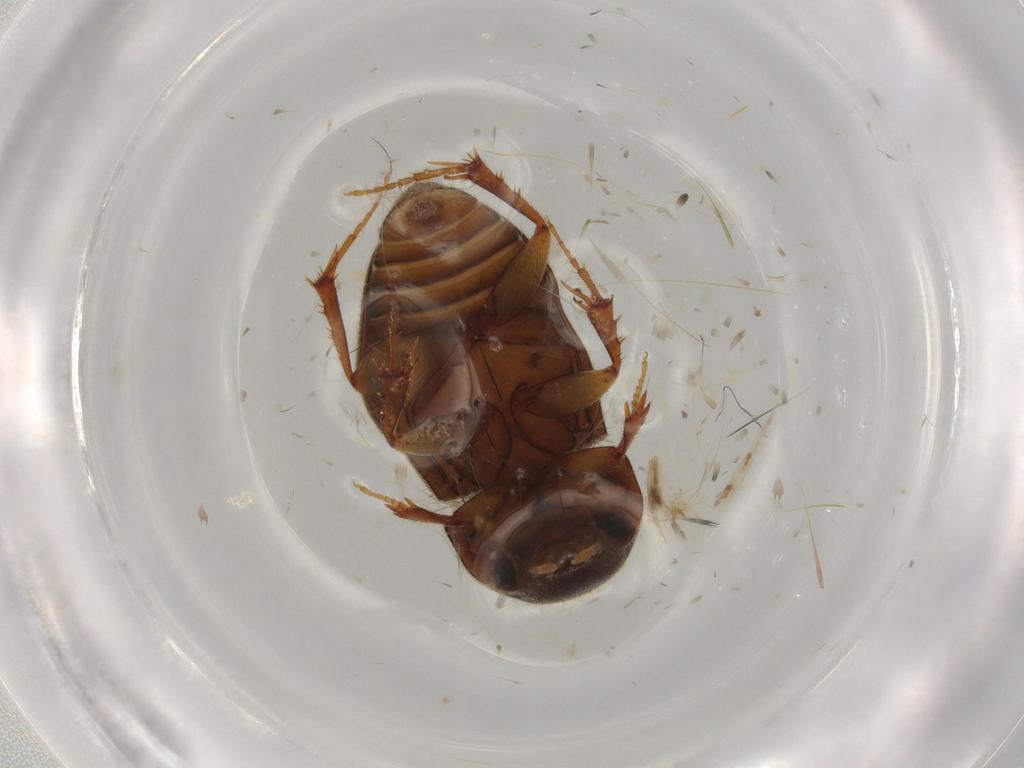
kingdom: Animalia
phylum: Arthropoda
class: Insecta
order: Coleoptera
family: Scarabaeidae
